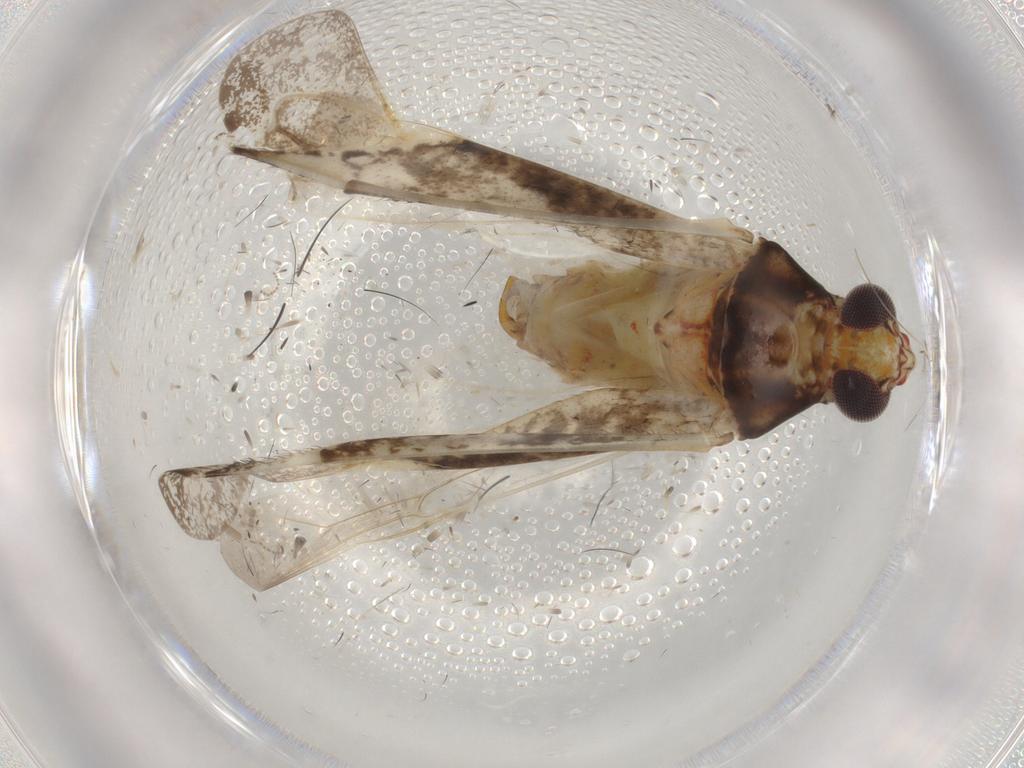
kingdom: Animalia
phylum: Arthropoda
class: Insecta
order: Hemiptera
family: Miridae
